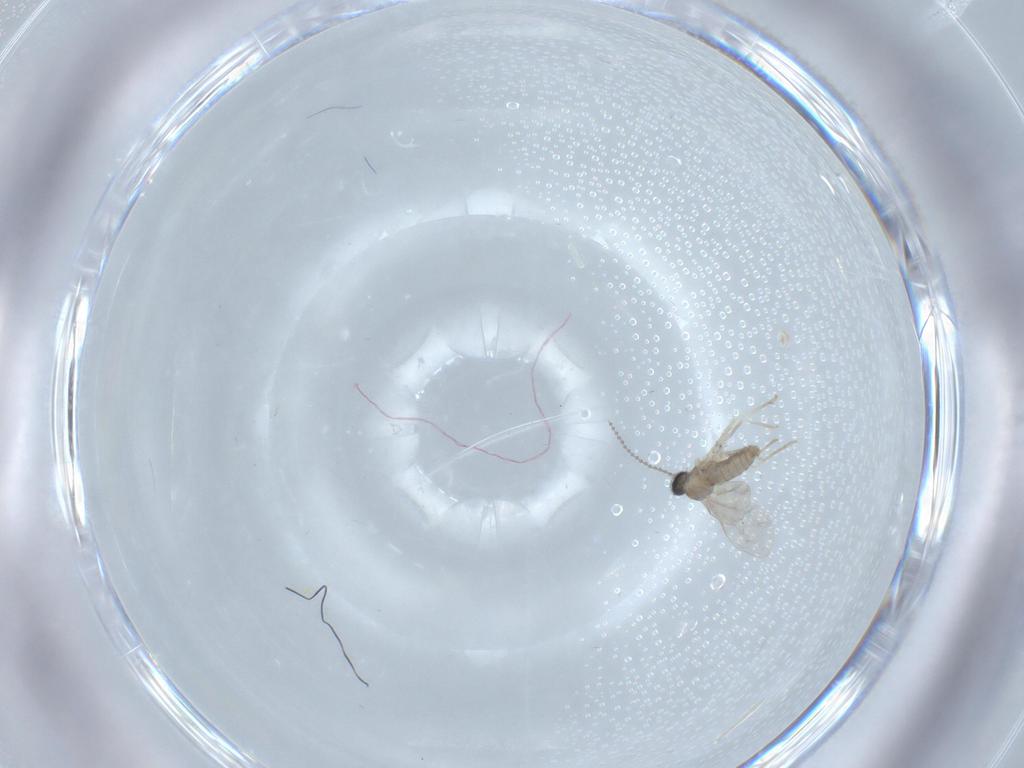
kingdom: Animalia
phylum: Arthropoda
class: Insecta
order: Diptera
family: Cecidomyiidae
